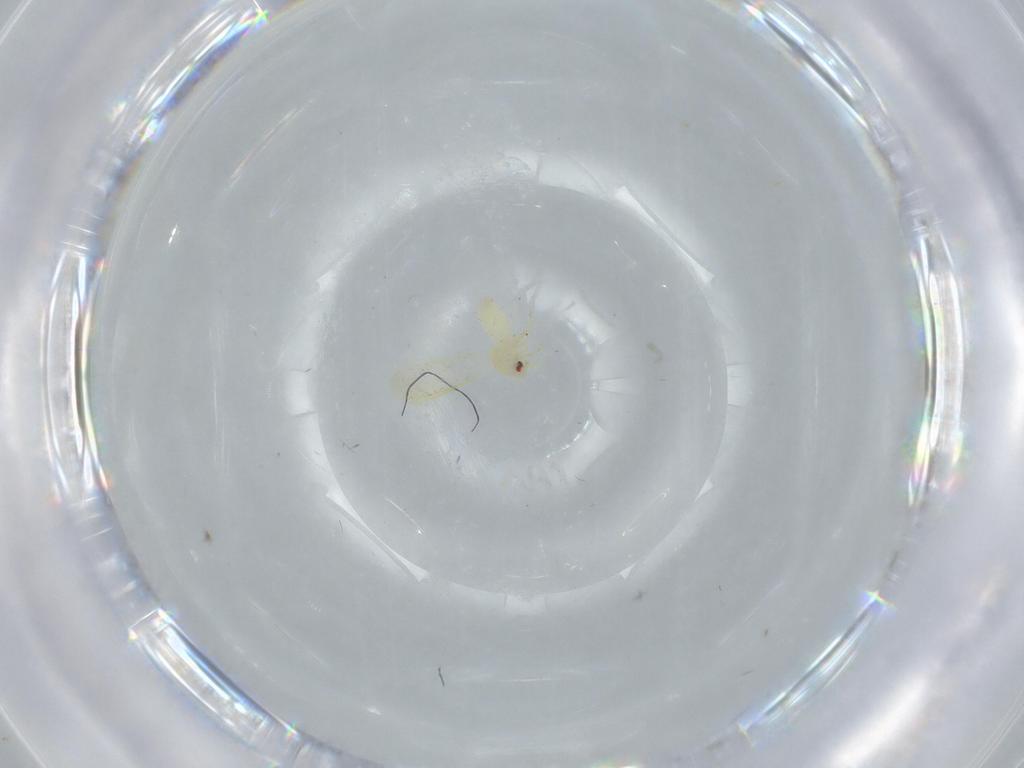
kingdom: Animalia
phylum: Arthropoda
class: Insecta
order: Hemiptera
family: Aleyrodidae
